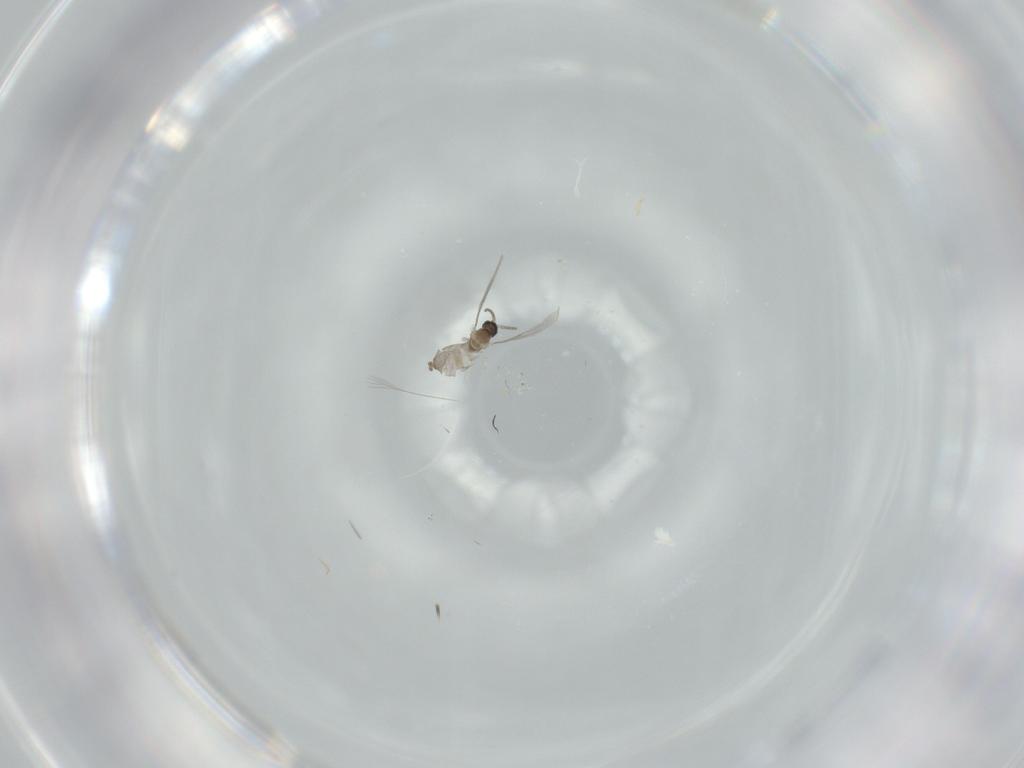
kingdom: Animalia
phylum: Arthropoda
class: Insecta
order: Diptera
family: Cecidomyiidae
